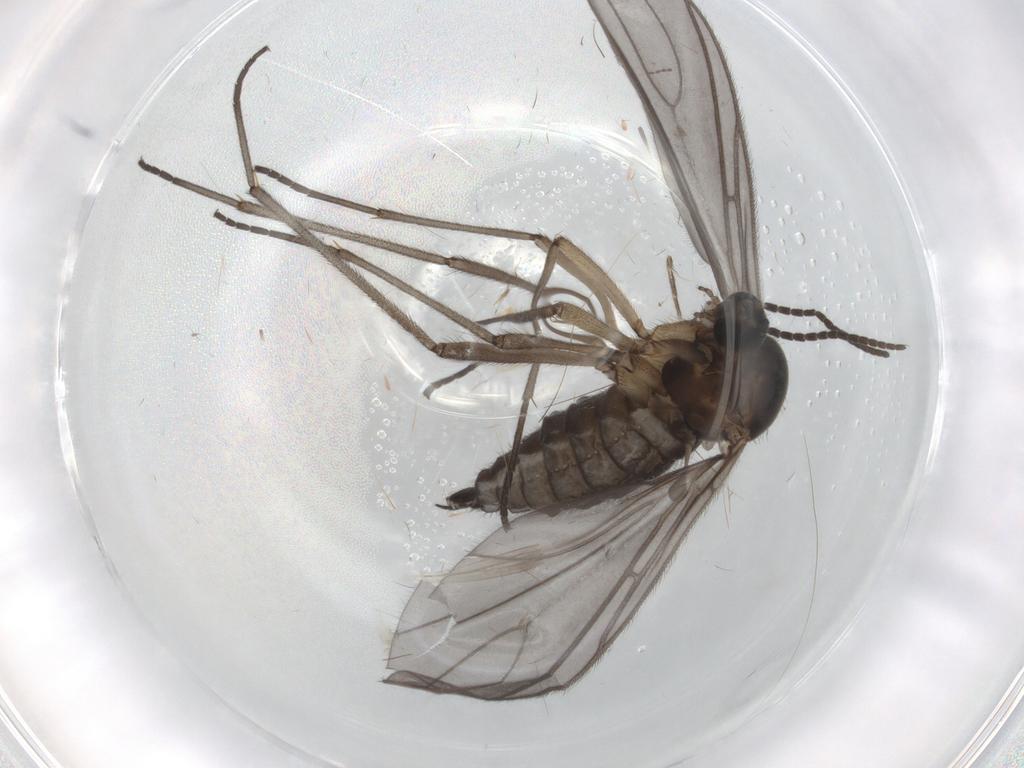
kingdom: Animalia
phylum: Arthropoda
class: Insecta
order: Diptera
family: Sciaridae
